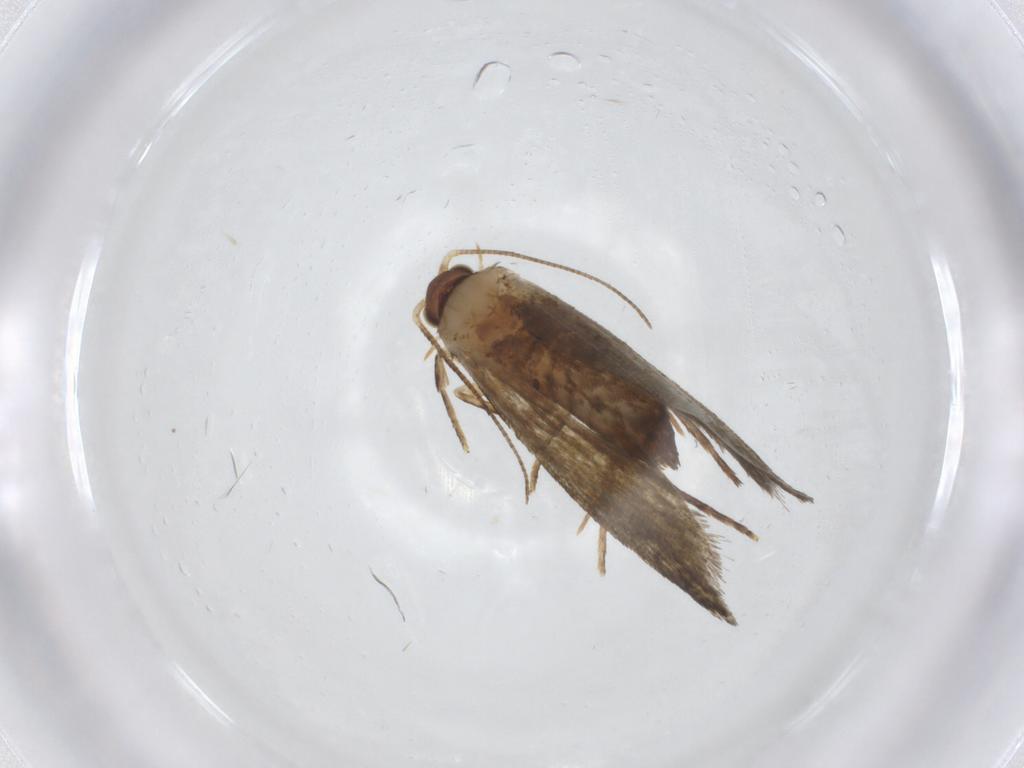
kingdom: Animalia
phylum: Arthropoda
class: Insecta
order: Lepidoptera
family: Tineidae
